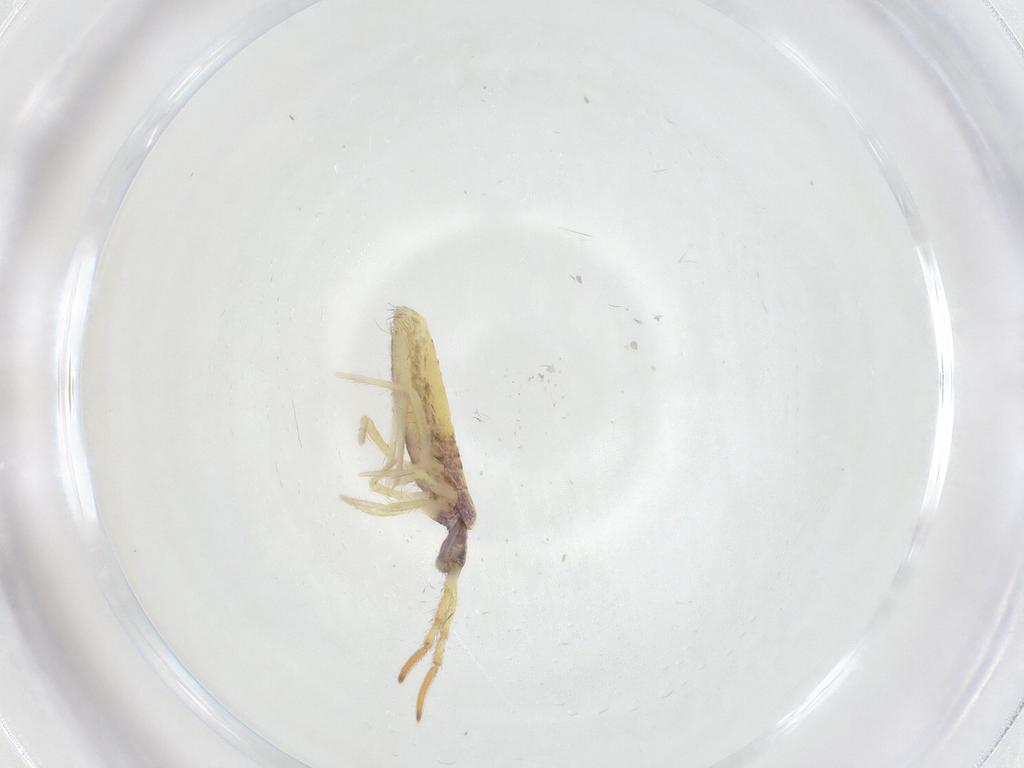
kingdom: Animalia
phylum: Arthropoda
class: Collembola
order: Entomobryomorpha
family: Entomobryidae
